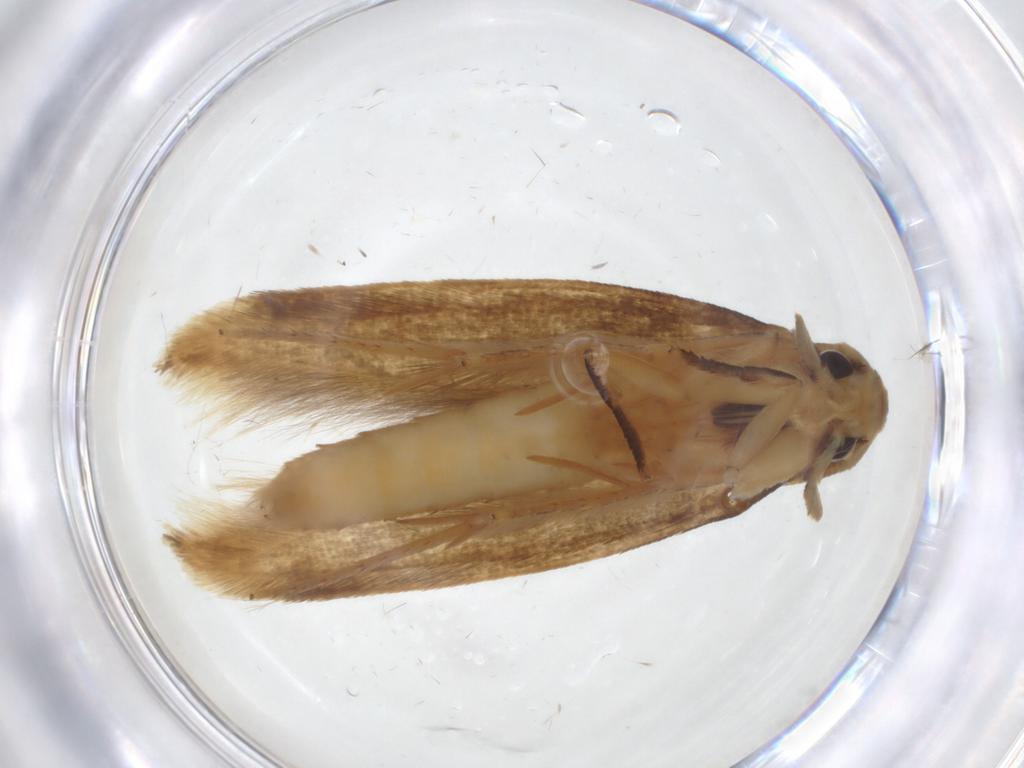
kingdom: Animalia
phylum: Arthropoda
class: Insecta
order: Lepidoptera
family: Tineidae
